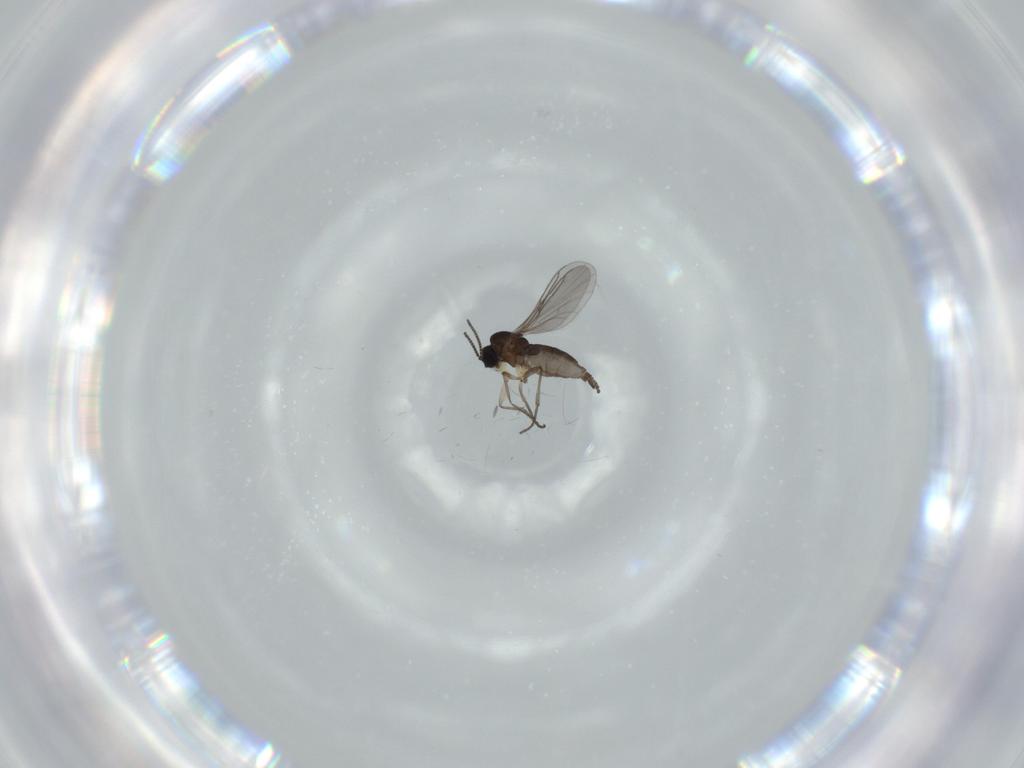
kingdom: Animalia
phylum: Arthropoda
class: Insecta
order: Diptera
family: Sciaridae
